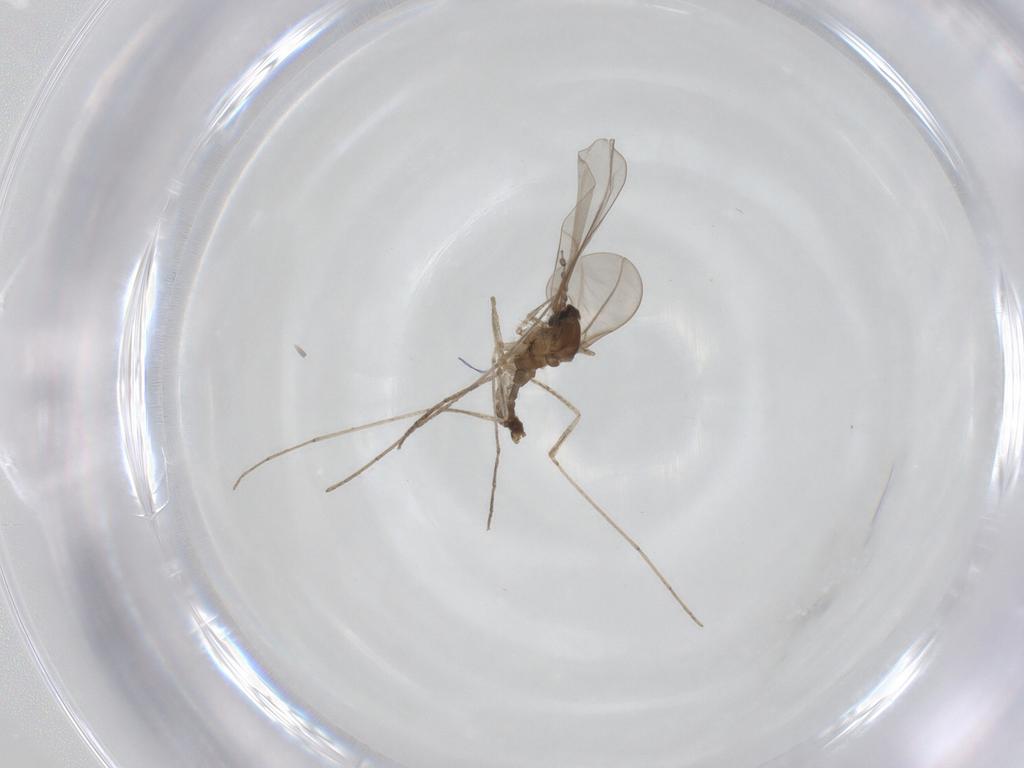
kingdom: Animalia
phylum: Arthropoda
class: Insecta
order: Diptera
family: Cecidomyiidae
